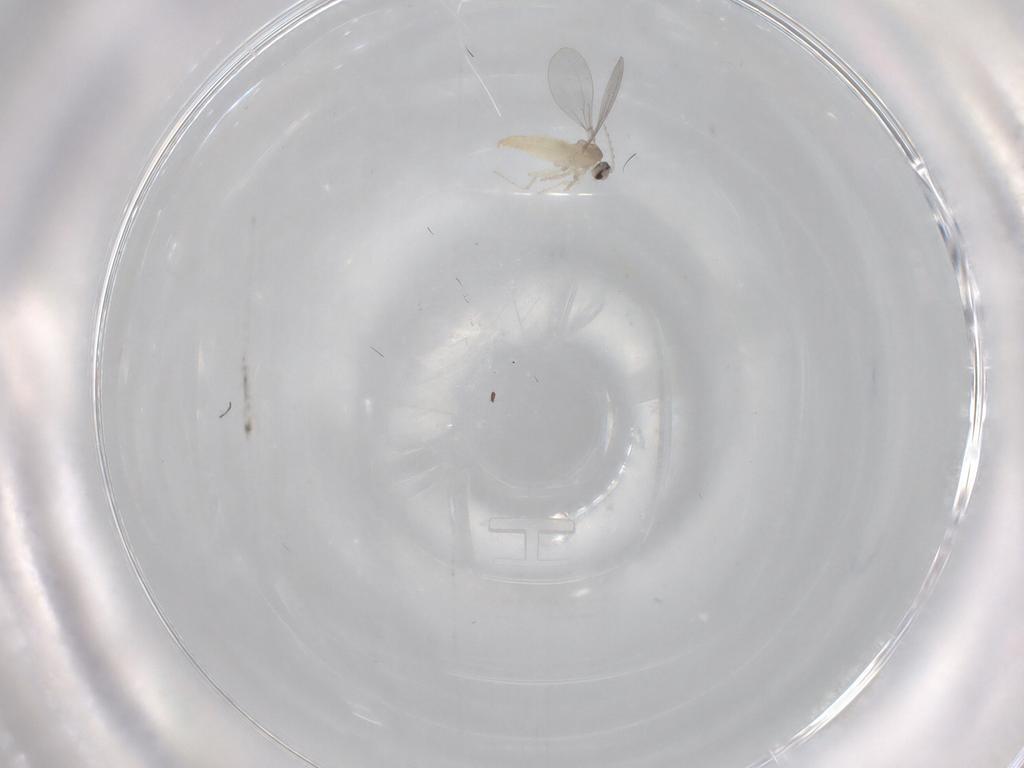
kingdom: Animalia
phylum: Arthropoda
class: Insecta
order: Diptera
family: Cecidomyiidae
